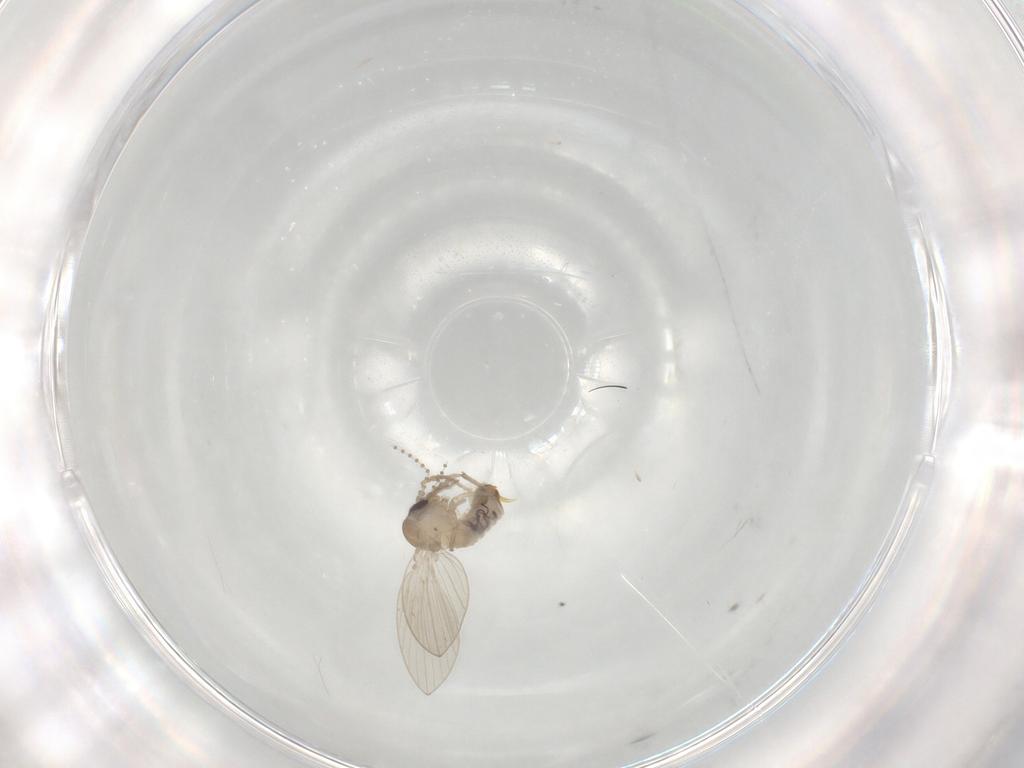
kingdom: Animalia
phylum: Arthropoda
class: Insecta
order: Diptera
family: Psychodidae
